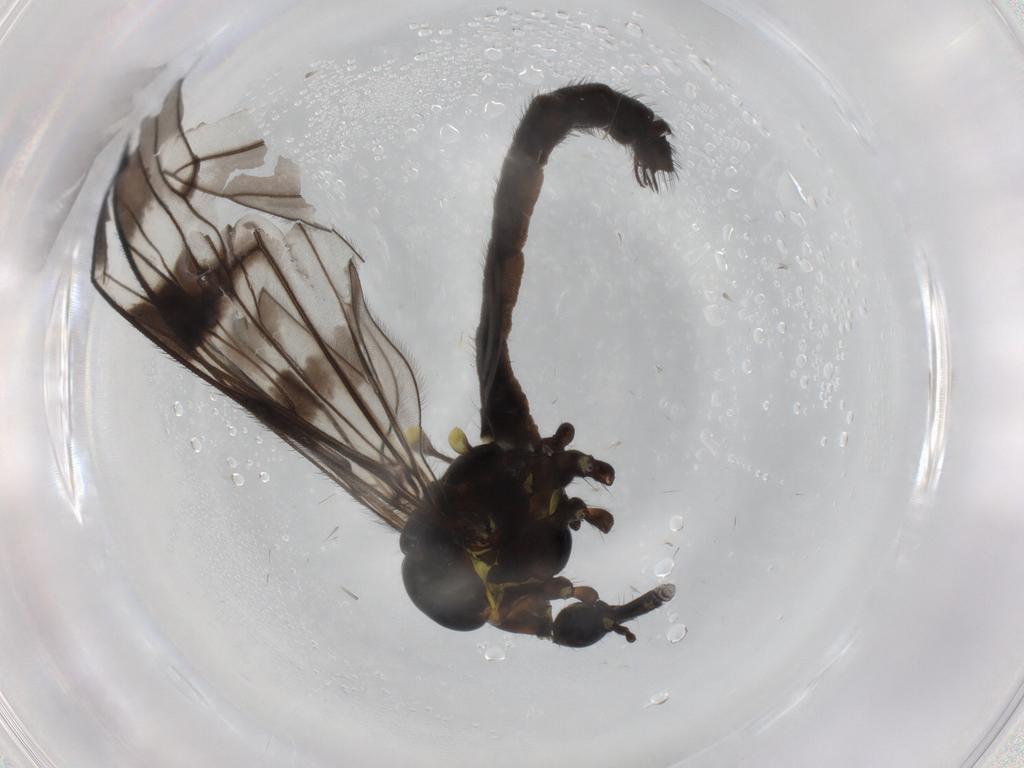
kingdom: Animalia
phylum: Arthropoda
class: Insecta
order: Diptera
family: Limoniidae
